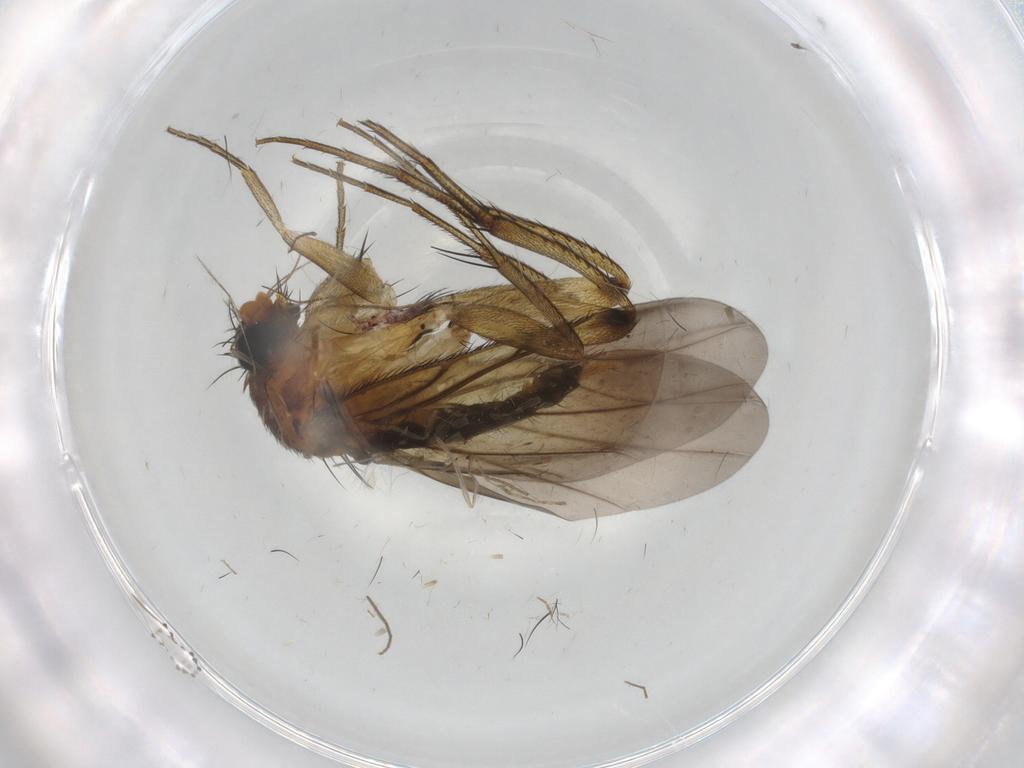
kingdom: Animalia
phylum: Arthropoda
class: Insecta
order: Diptera
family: Phoridae
